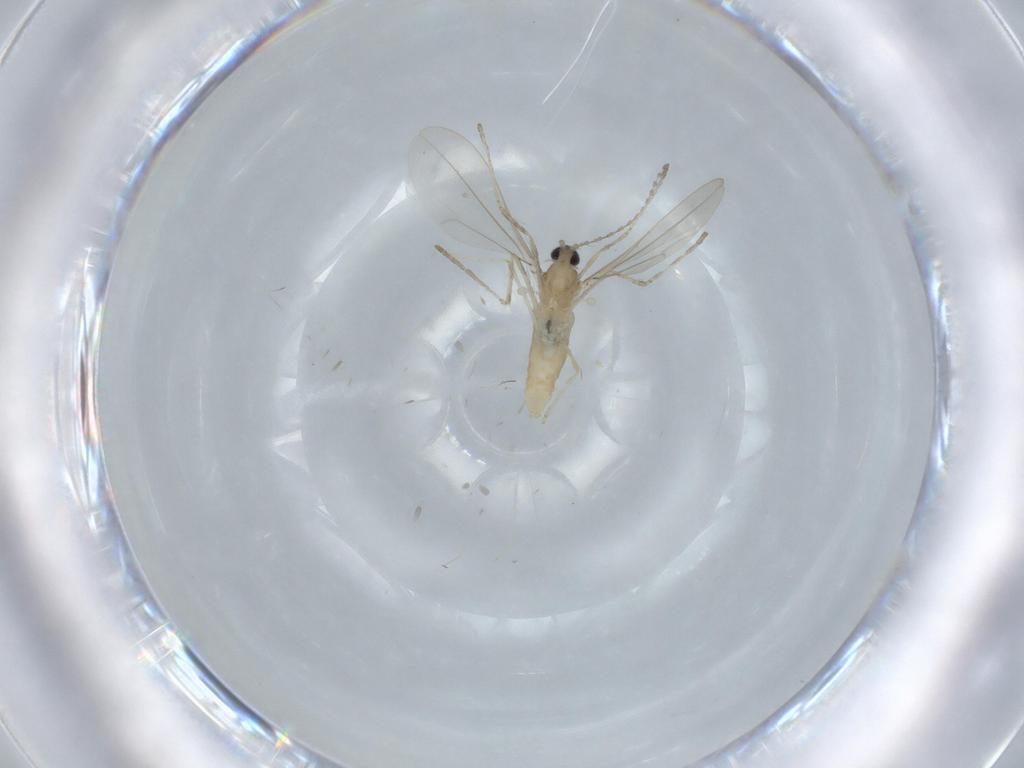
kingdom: Animalia
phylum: Arthropoda
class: Insecta
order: Diptera
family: Cecidomyiidae
